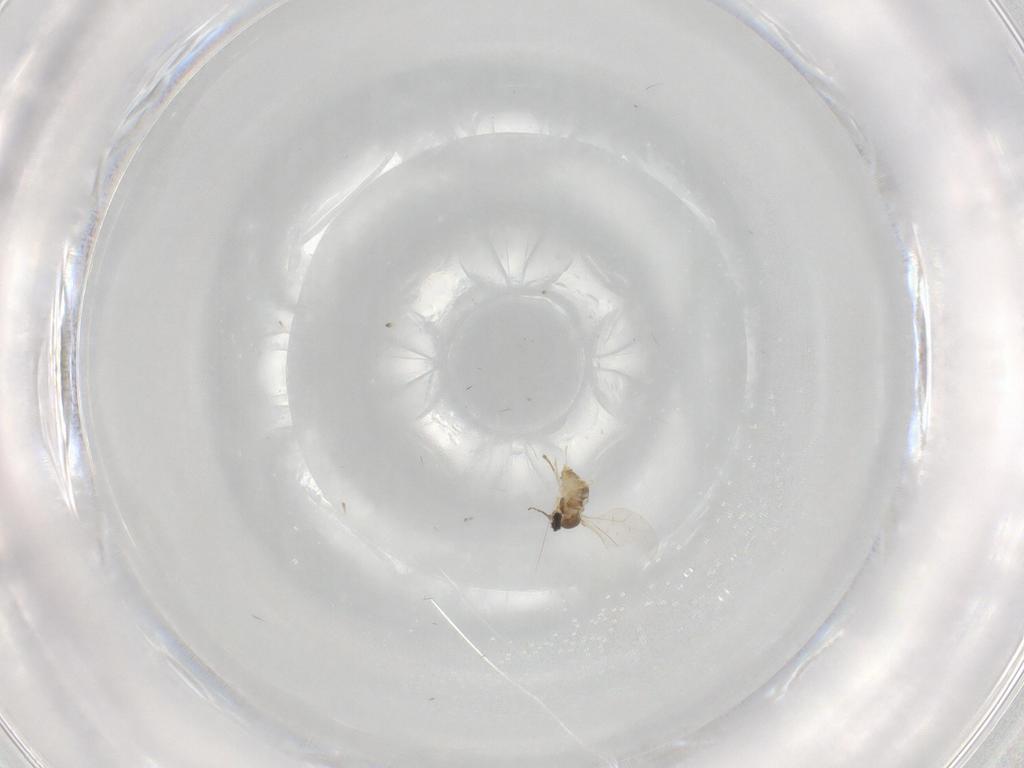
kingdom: Animalia
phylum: Arthropoda
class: Insecta
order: Diptera
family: Cecidomyiidae
